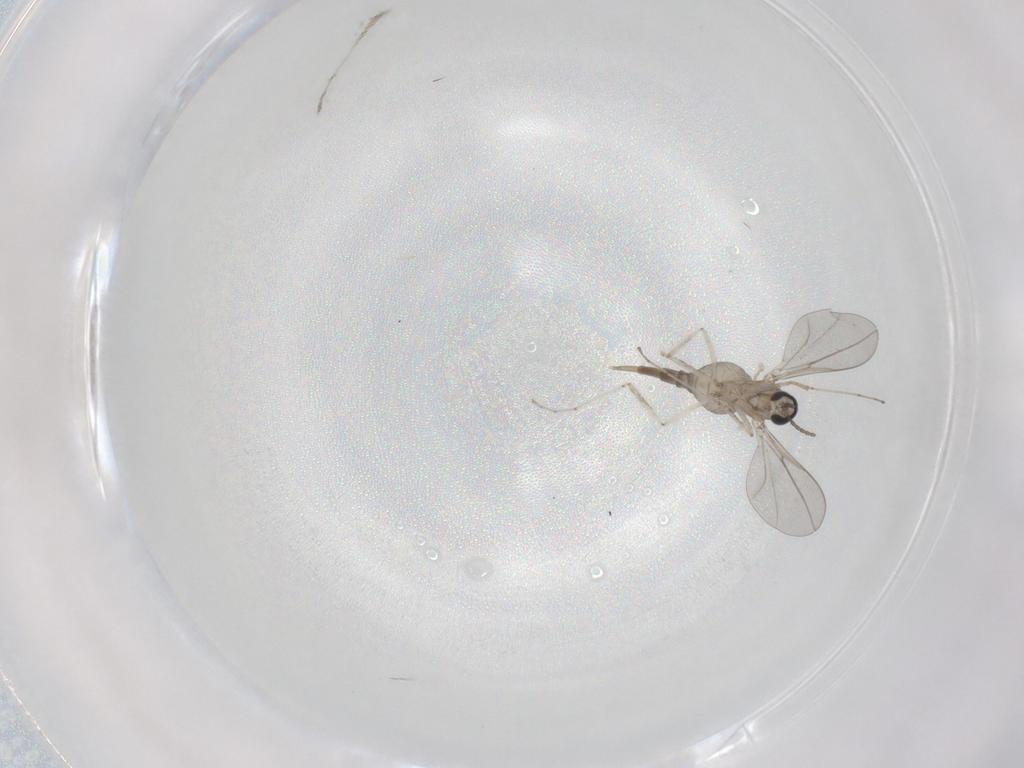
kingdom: Animalia
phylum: Arthropoda
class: Insecta
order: Diptera
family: Cecidomyiidae
